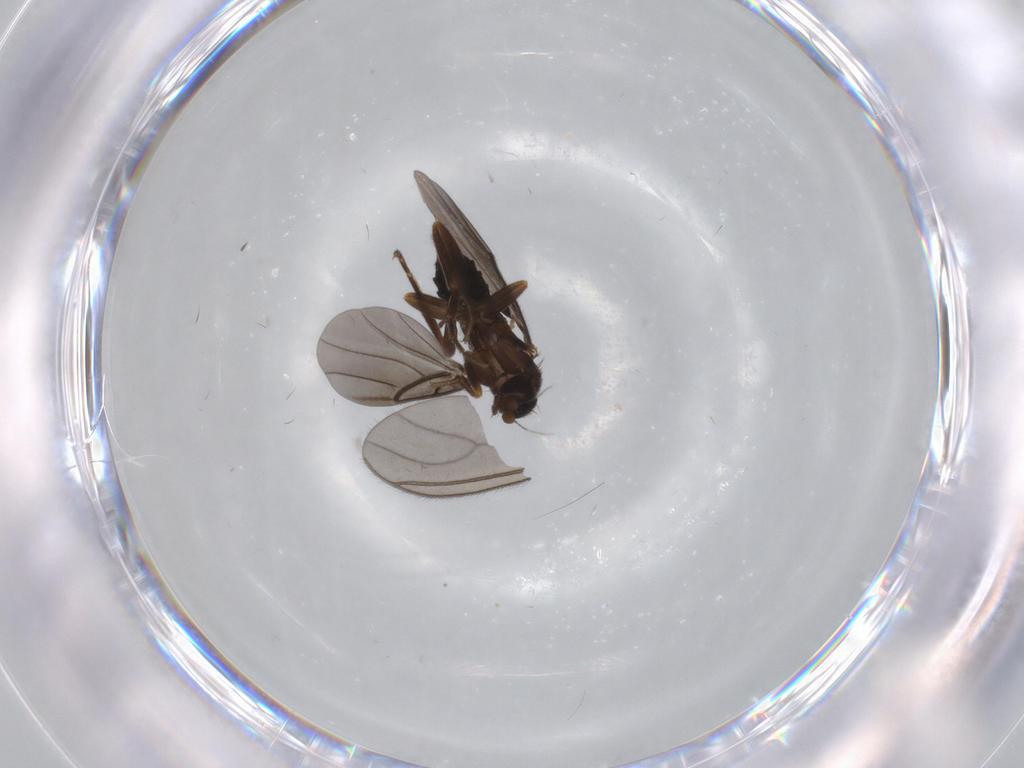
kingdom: Animalia
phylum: Arthropoda
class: Insecta
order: Diptera
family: Phoridae
